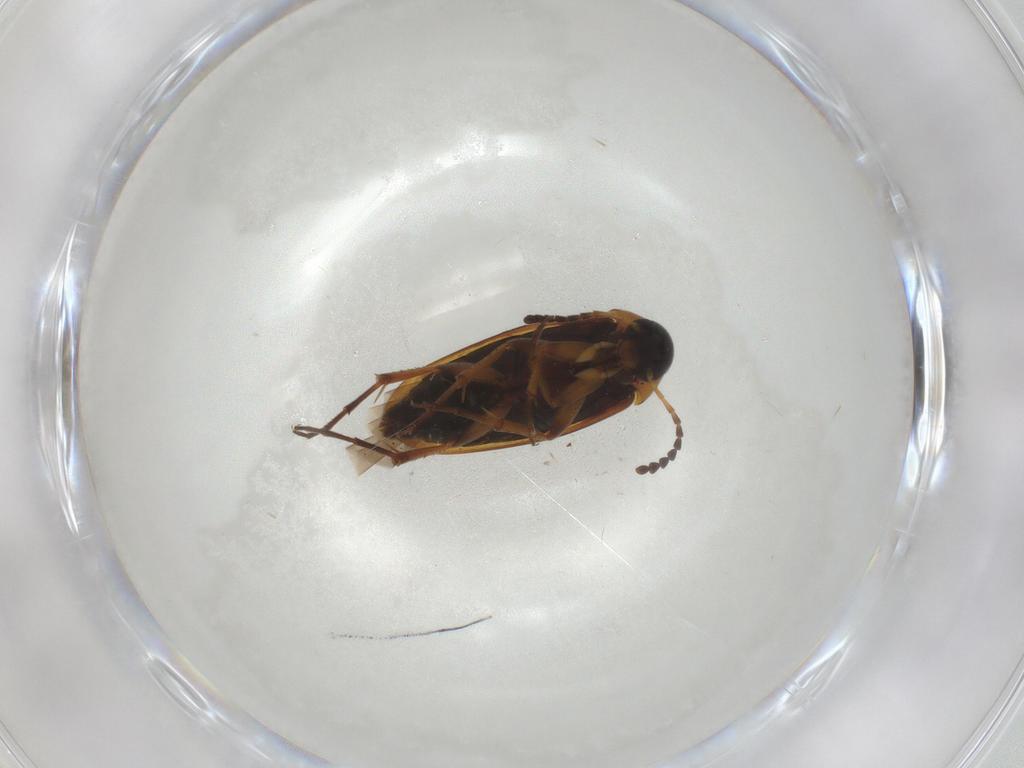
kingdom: Animalia
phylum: Arthropoda
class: Insecta
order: Coleoptera
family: Scraptiidae
